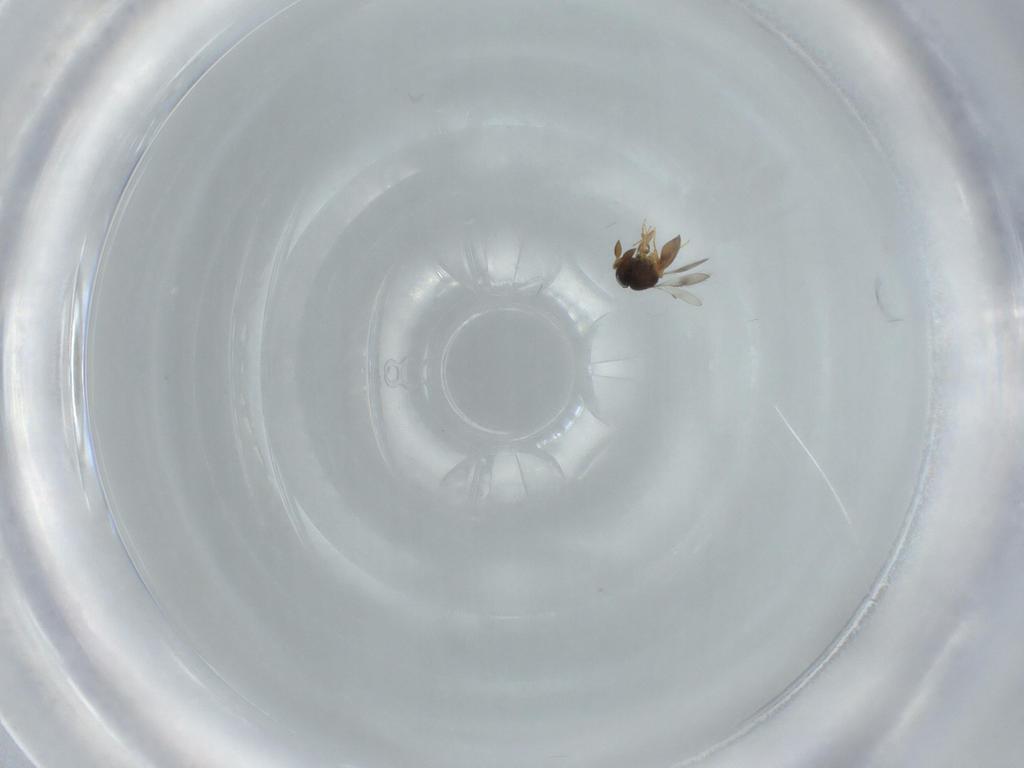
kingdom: Animalia
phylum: Arthropoda
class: Insecta
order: Hymenoptera
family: Scelionidae
